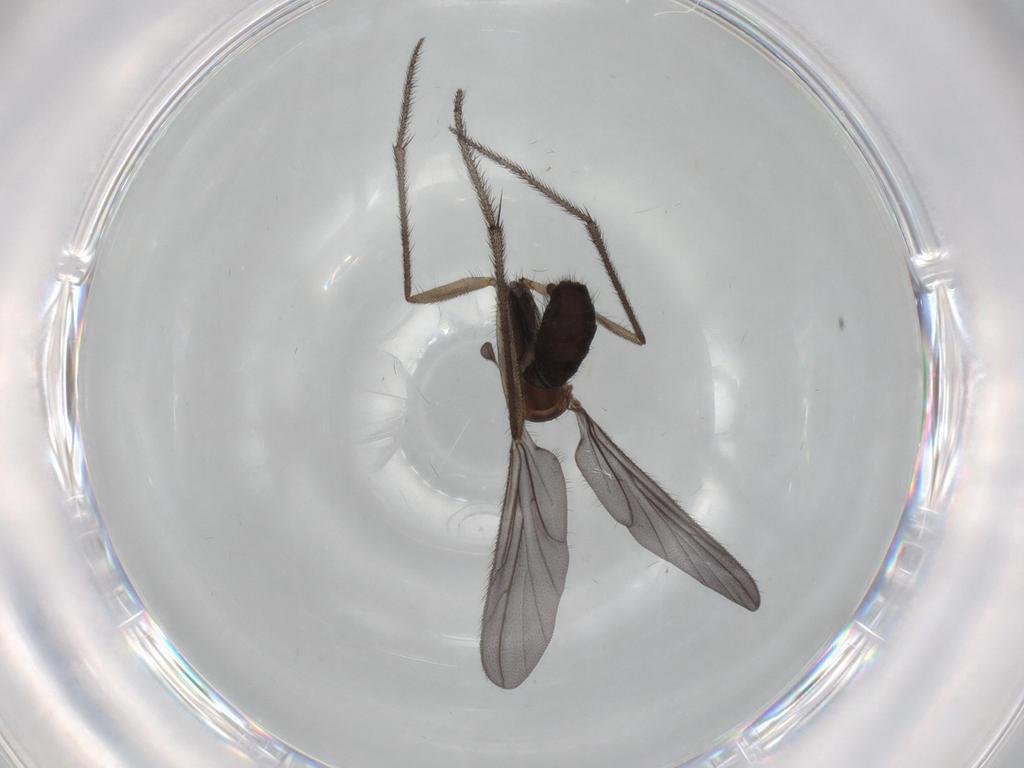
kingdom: Animalia
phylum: Arthropoda
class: Insecta
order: Diptera
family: Ditomyiidae
